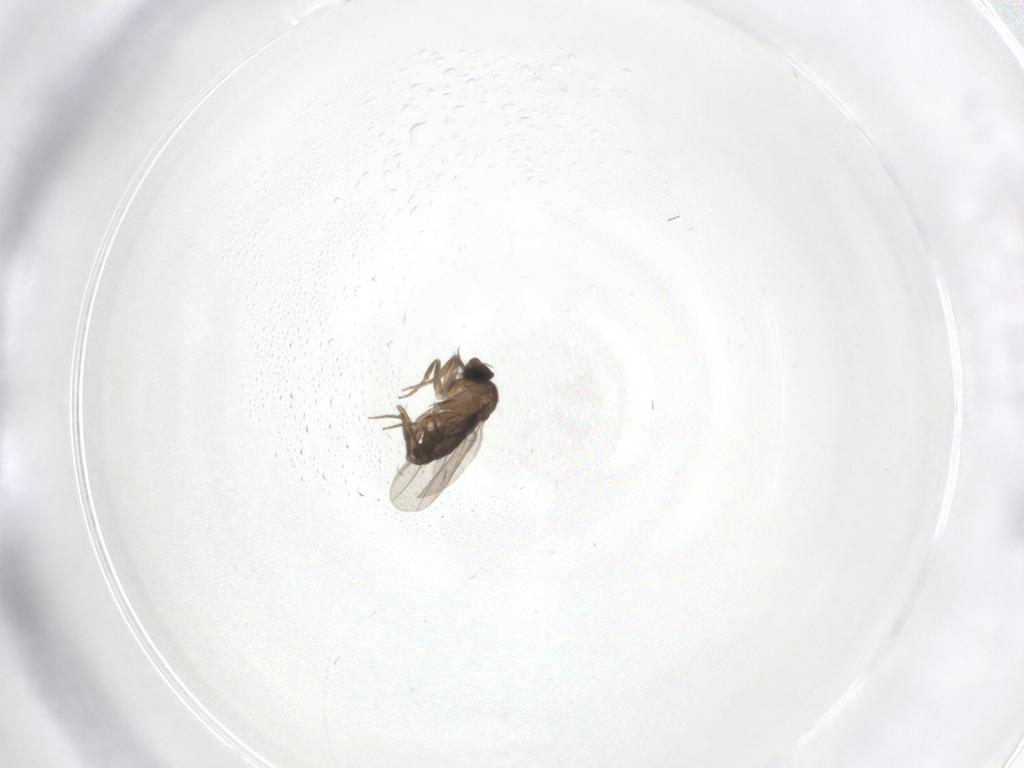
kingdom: Animalia
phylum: Arthropoda
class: Insecta
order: Diptera
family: Phoridae
